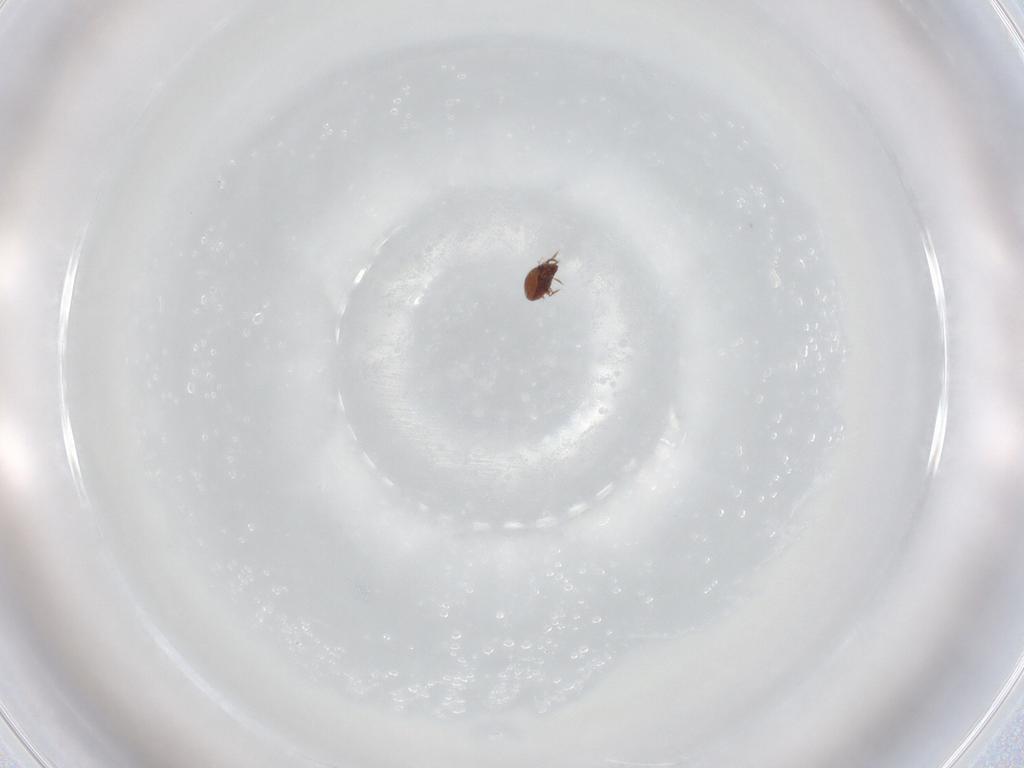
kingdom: Animalia
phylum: Arthropoda
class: Arachnida
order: Sarcoptiformes
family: Ceratozetidae
